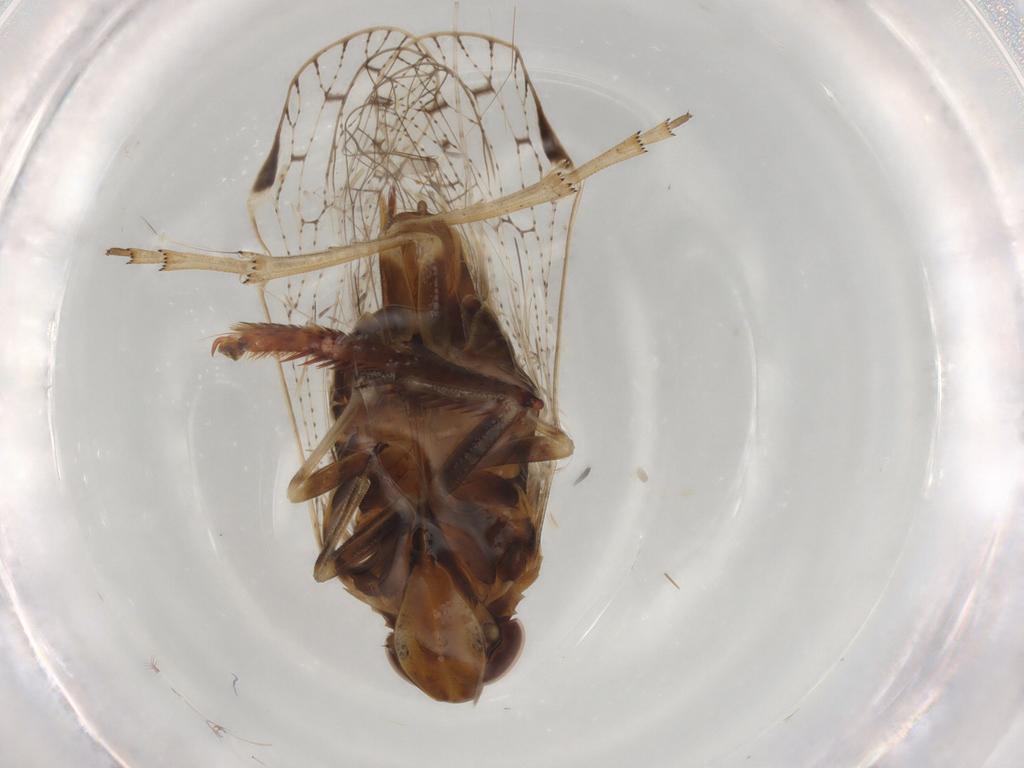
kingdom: Animalia
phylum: Arthropoda
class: Insecta
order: Hemiptera
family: Cixiidae
